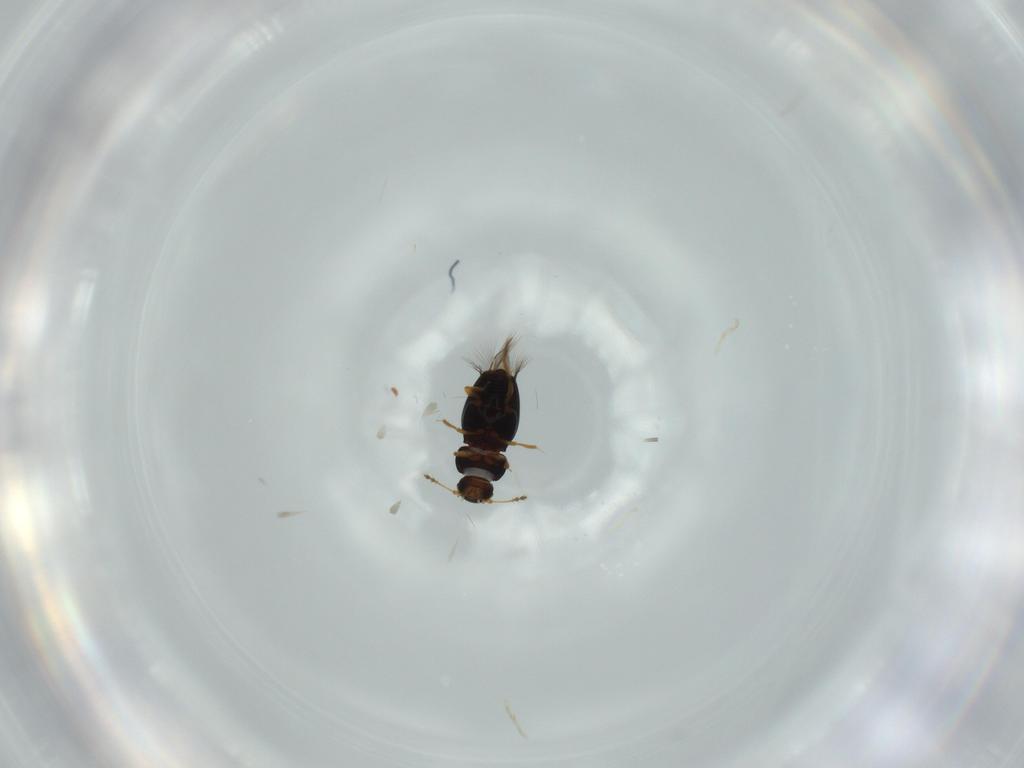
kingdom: Animalia
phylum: Arthropoda
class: Insecta
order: Coleoptera
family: Ptiliidae
